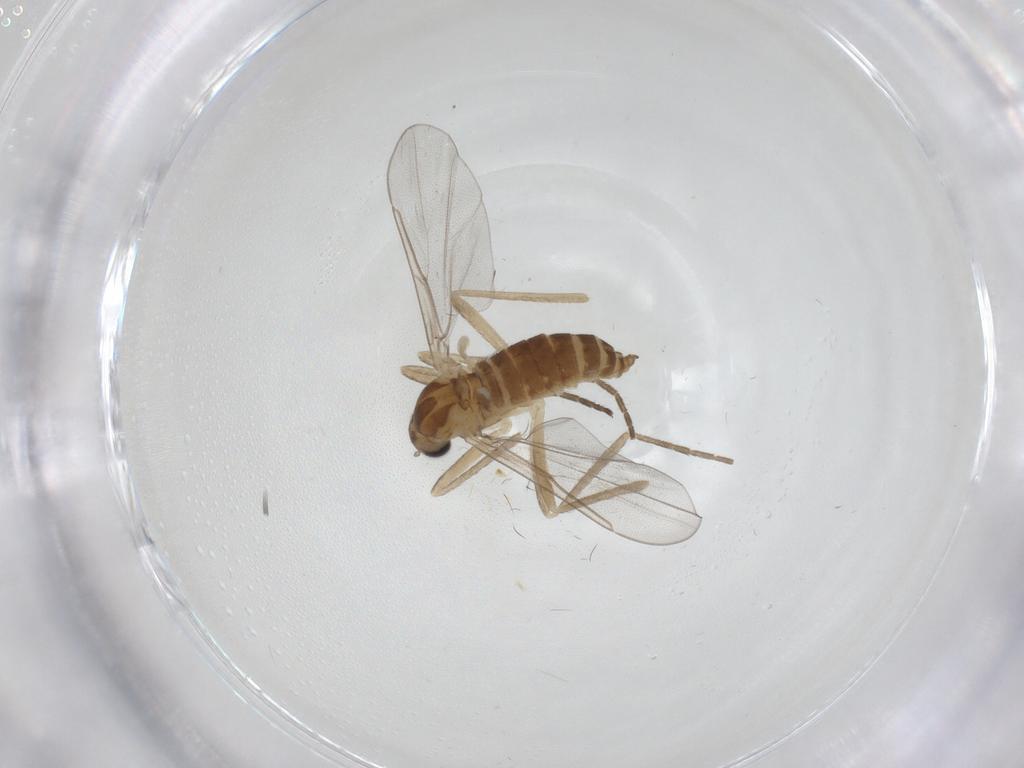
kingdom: Animalia
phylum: Arthropoda
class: Insecta
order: Diptera
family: Cecidomyiidae
